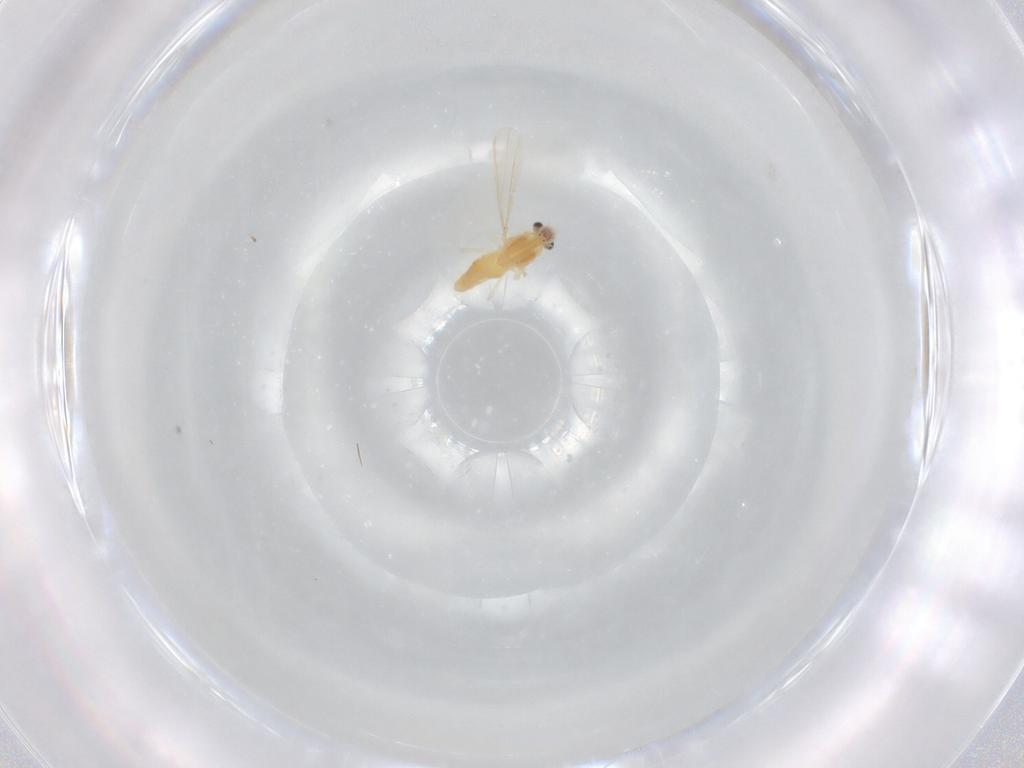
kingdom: Animalia
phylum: Arthropoda
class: Insecta
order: Diptera
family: Chironomidae
